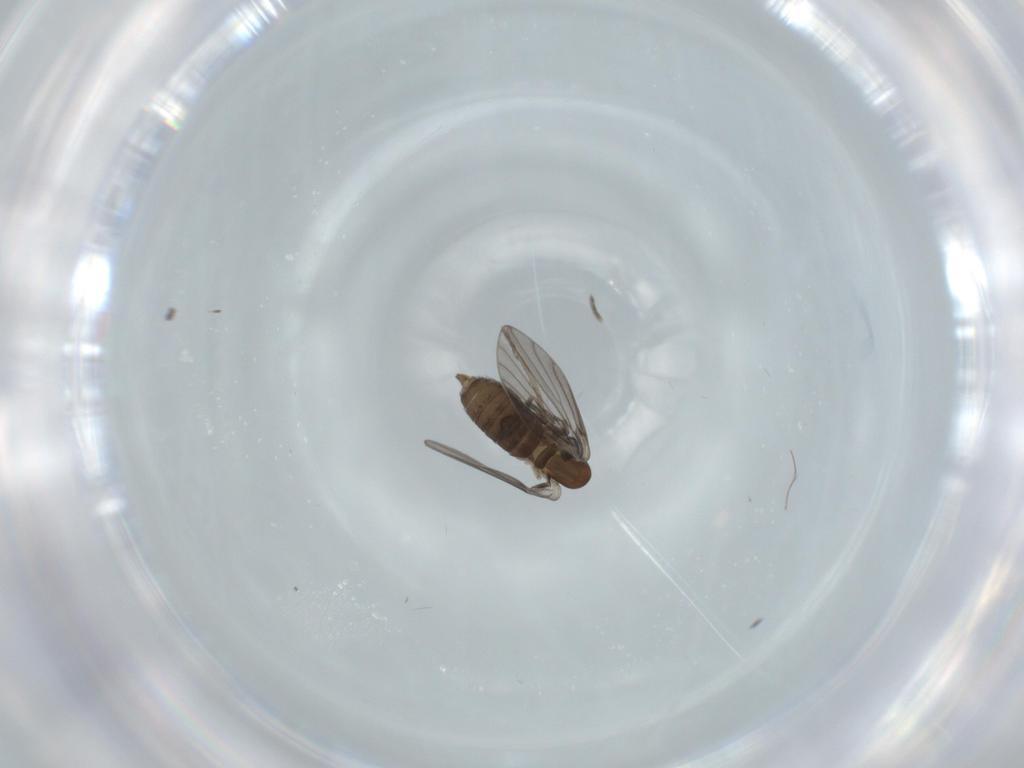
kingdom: Animalia
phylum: Arthropoda
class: Insecta
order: Diptera
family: Psychodidae
